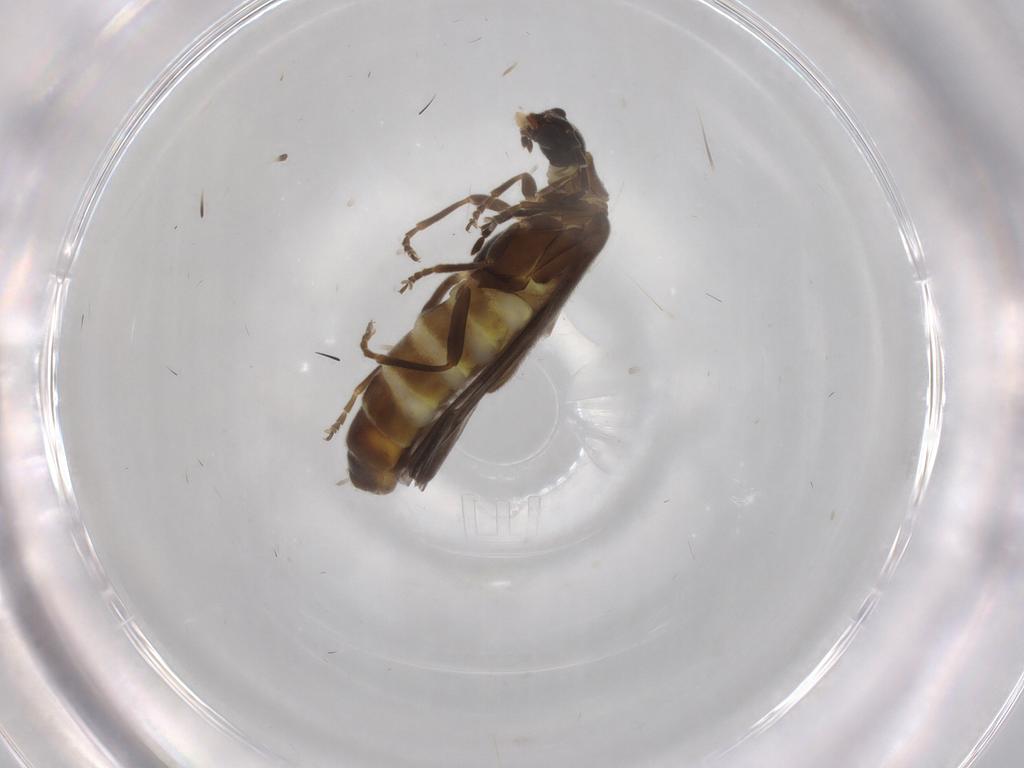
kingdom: Animalia
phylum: Arthropoda
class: Insecta
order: Coleoptera
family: Cantharidae
